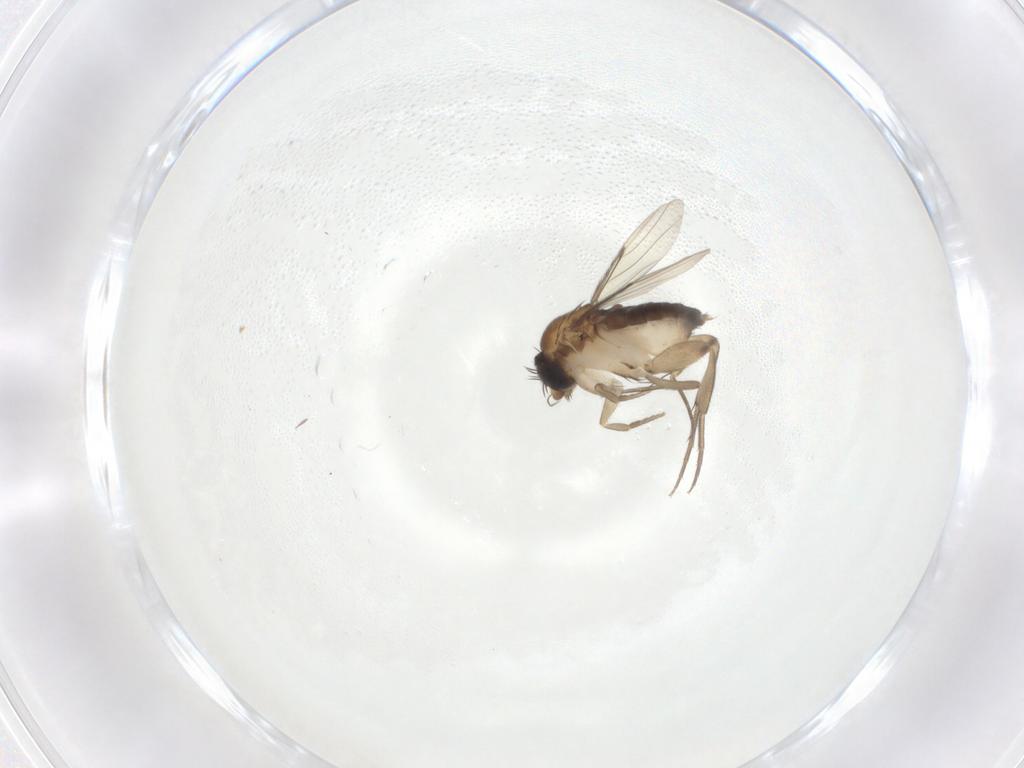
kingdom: Animalia
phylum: Arthropoda
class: Insecta
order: Diptera
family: Phoridae
